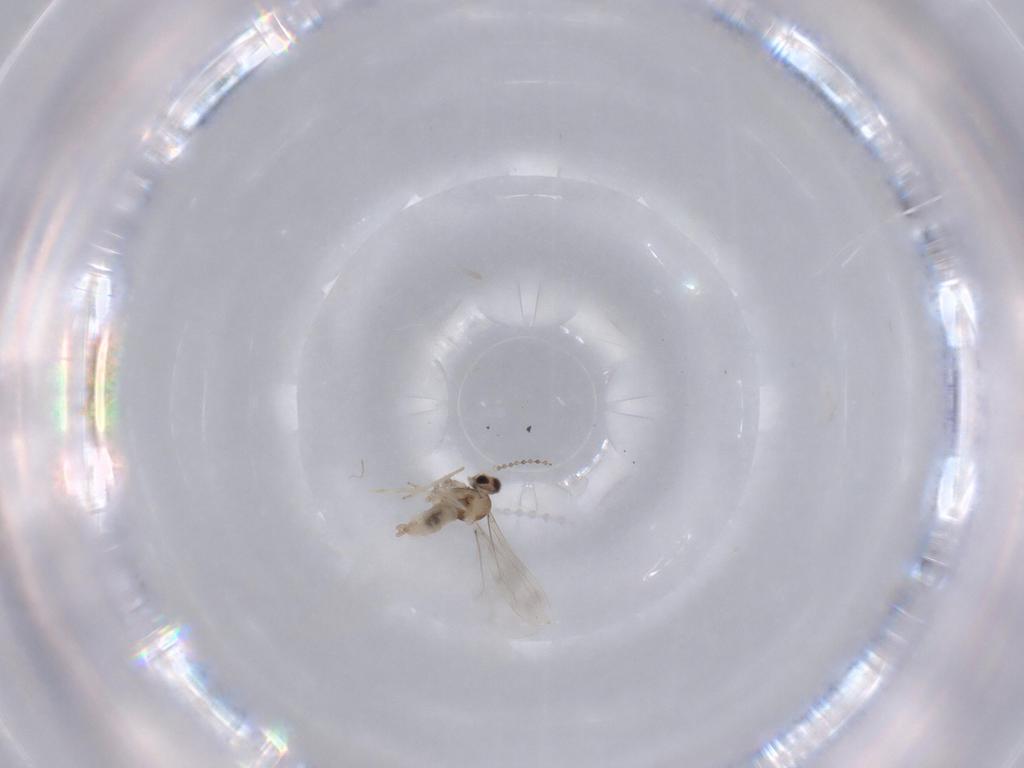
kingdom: Animalia
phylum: Arthropoda
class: Insecta
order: Diptera
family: Cecidomyiidae
